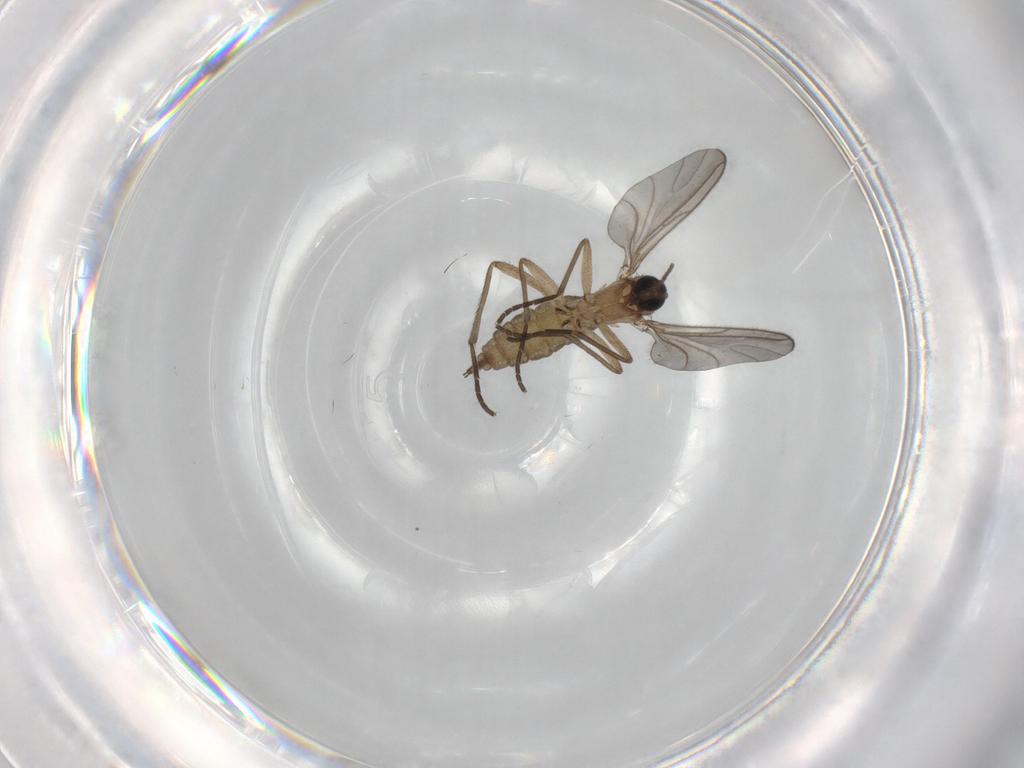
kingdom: Animalia
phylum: Arthropoda
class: Insecta
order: Diptera
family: Sciaridae
